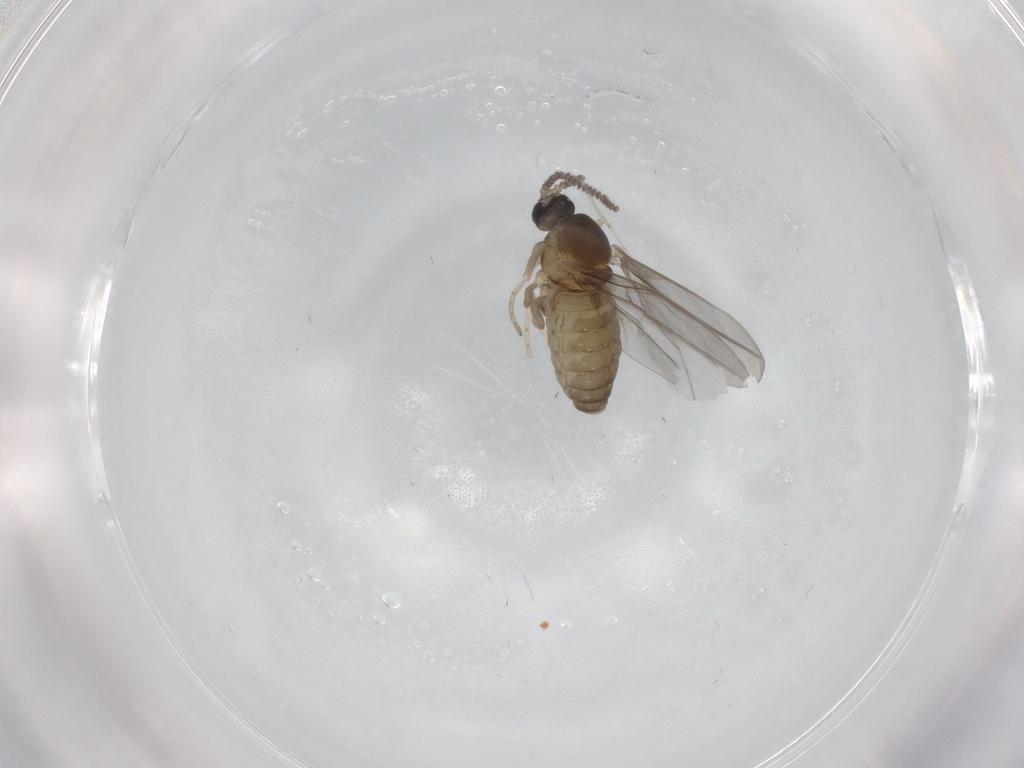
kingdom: Animalia
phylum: Arthropoda
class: Insecta
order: Diptera
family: Cecidomyiidae
